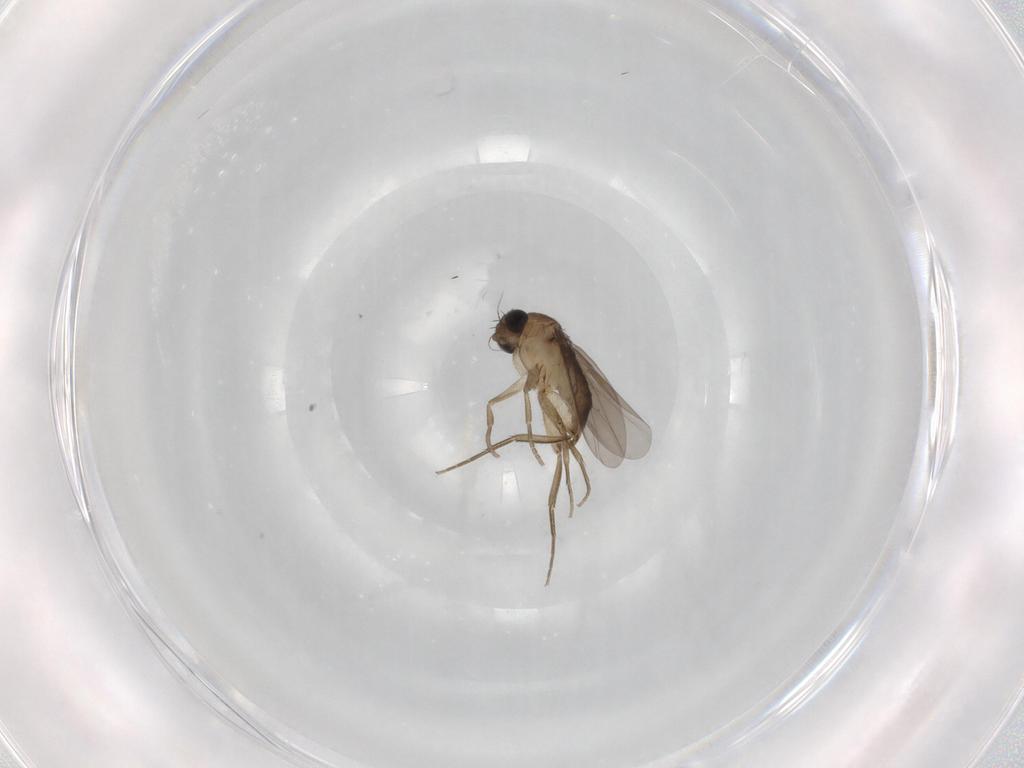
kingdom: Animalia
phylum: Arthropoda
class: Insecta
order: Diptera
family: Phoridae
